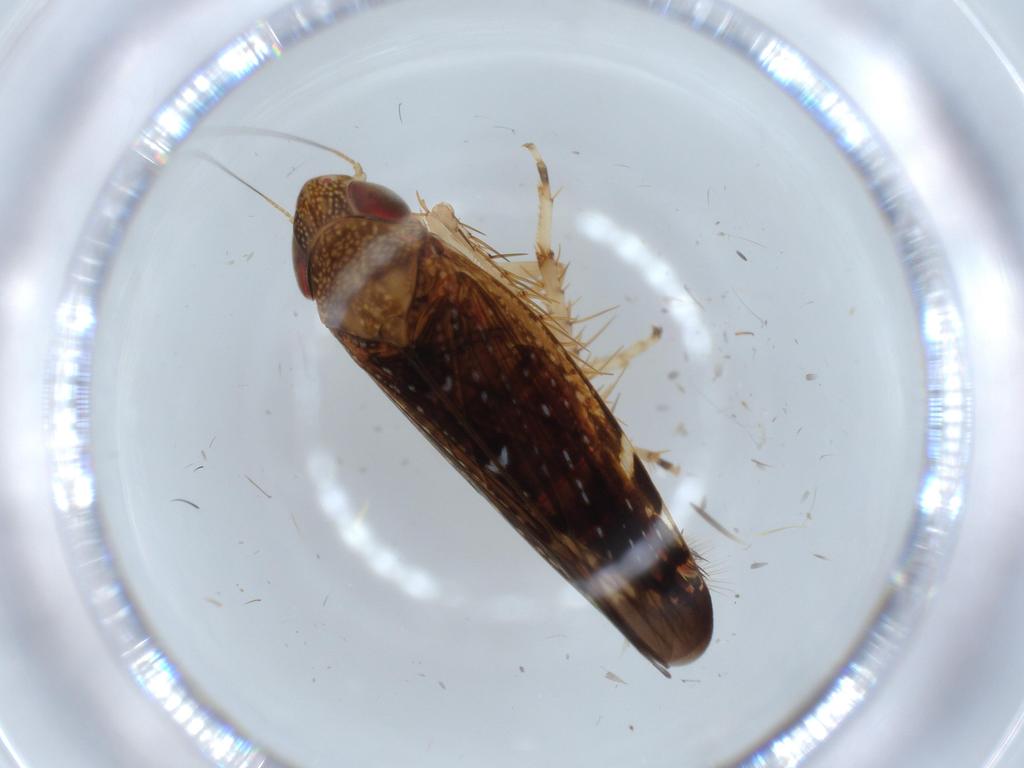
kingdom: Animalia
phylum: Arthropoda
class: Insecta
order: Hemiptera
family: Cicadellidae
